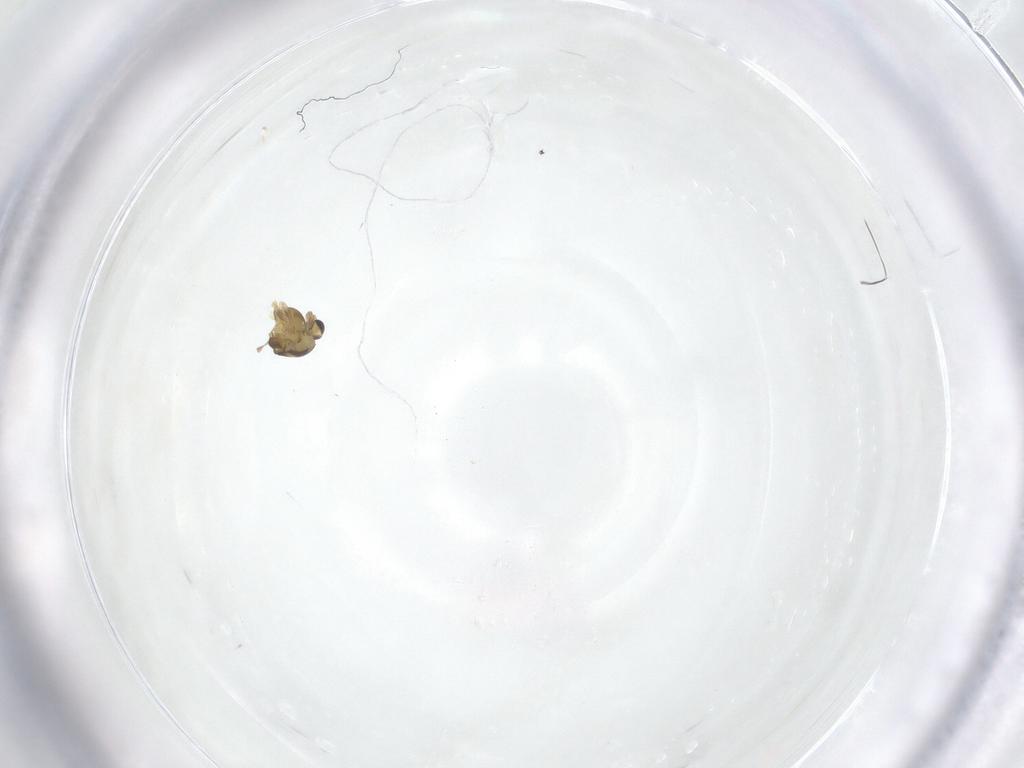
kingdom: Animalia
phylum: Arthropoda
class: Insecta
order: Diptera
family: Chironomidae
